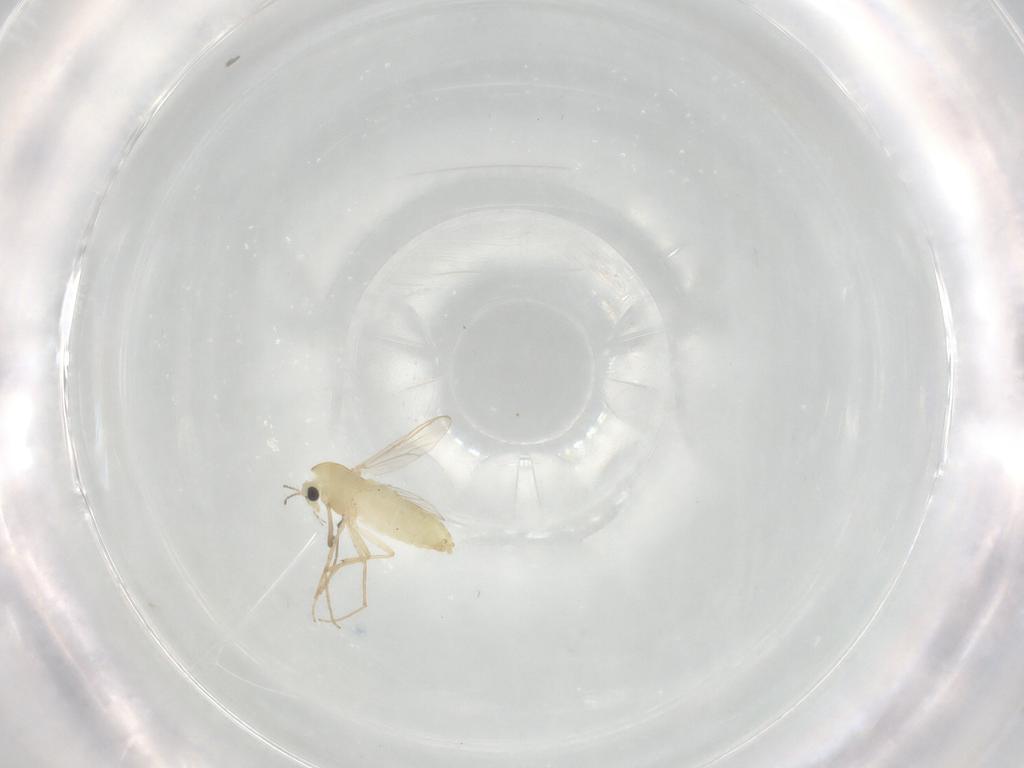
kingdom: Animalia
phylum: Arthropoda
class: Insecta
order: Diptera
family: Chironomidae
